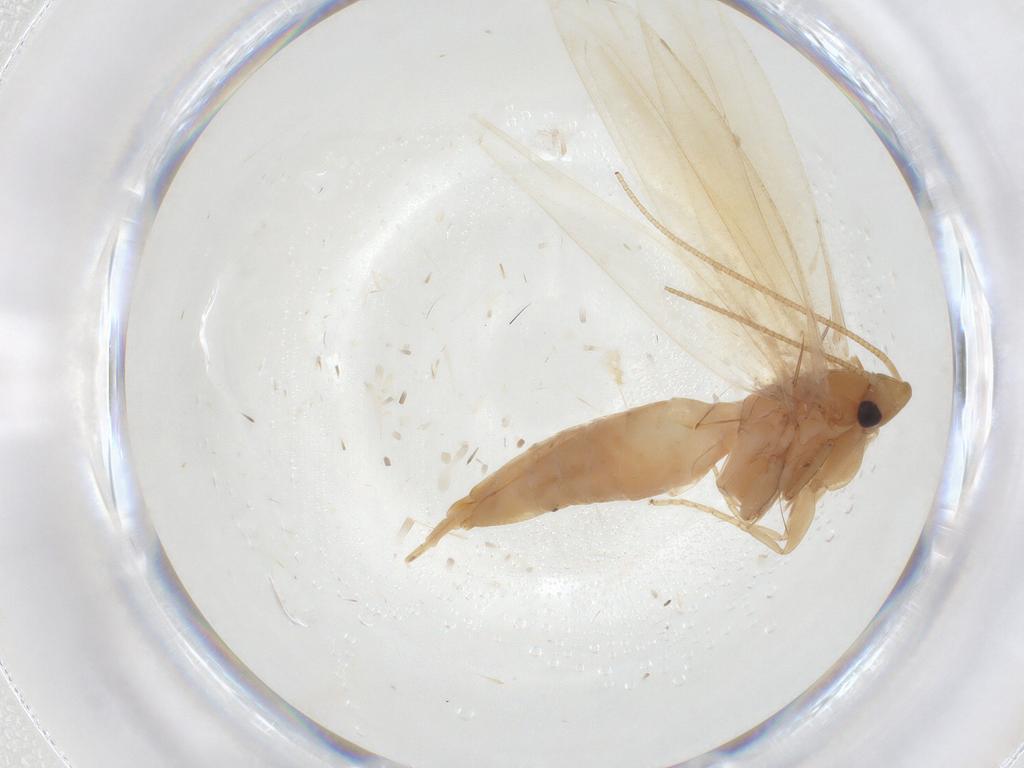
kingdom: Animalia
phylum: Arthropoda
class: Insecta
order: Lepidoptera
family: Tineidae
